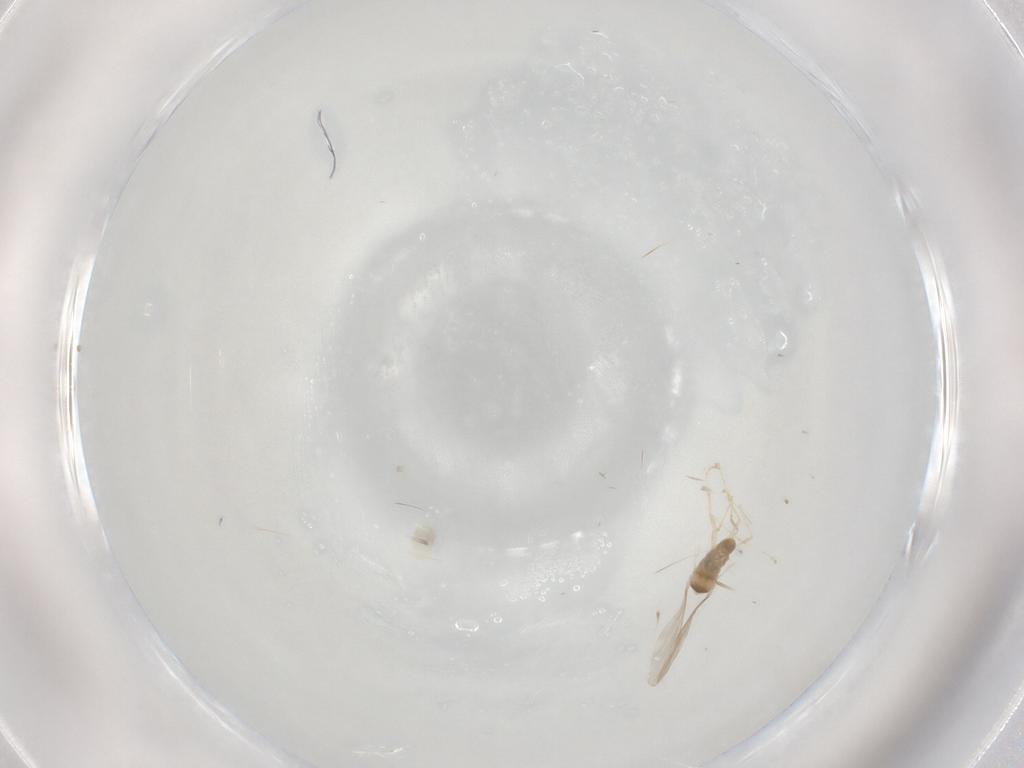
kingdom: Animalia
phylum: Arthropoda
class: Insecta
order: Diptera
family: Cecidomyiidae
